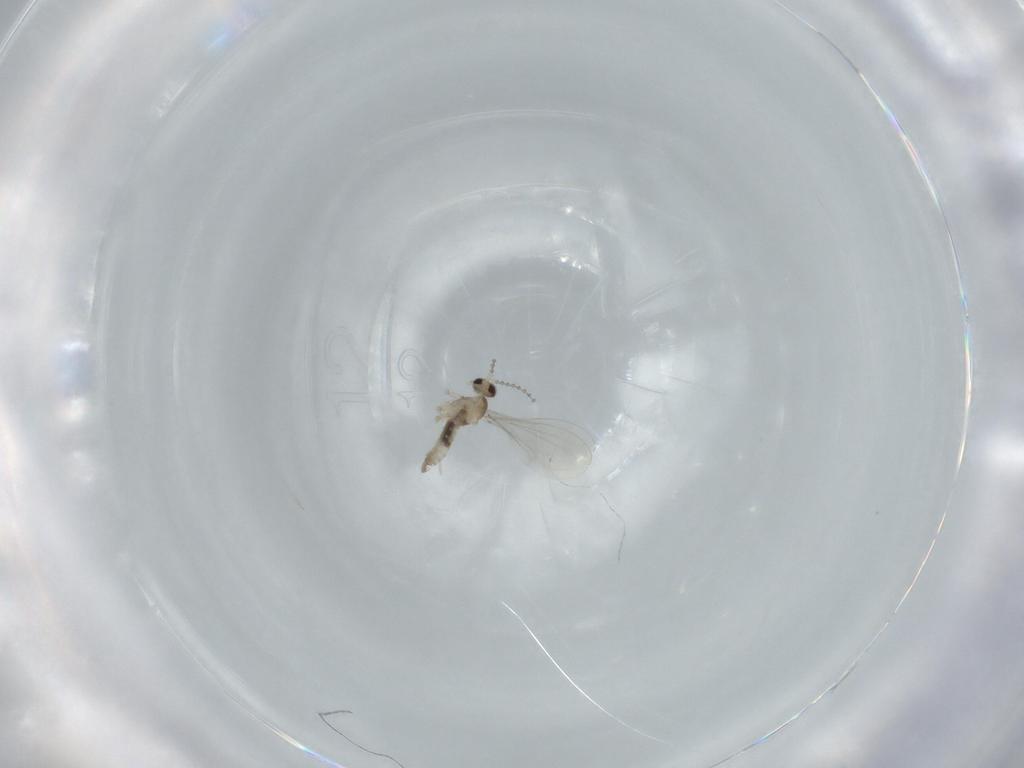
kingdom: Animalia
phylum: Arthropoda
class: Insecta
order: Diptera
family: Cecidomyiidae
